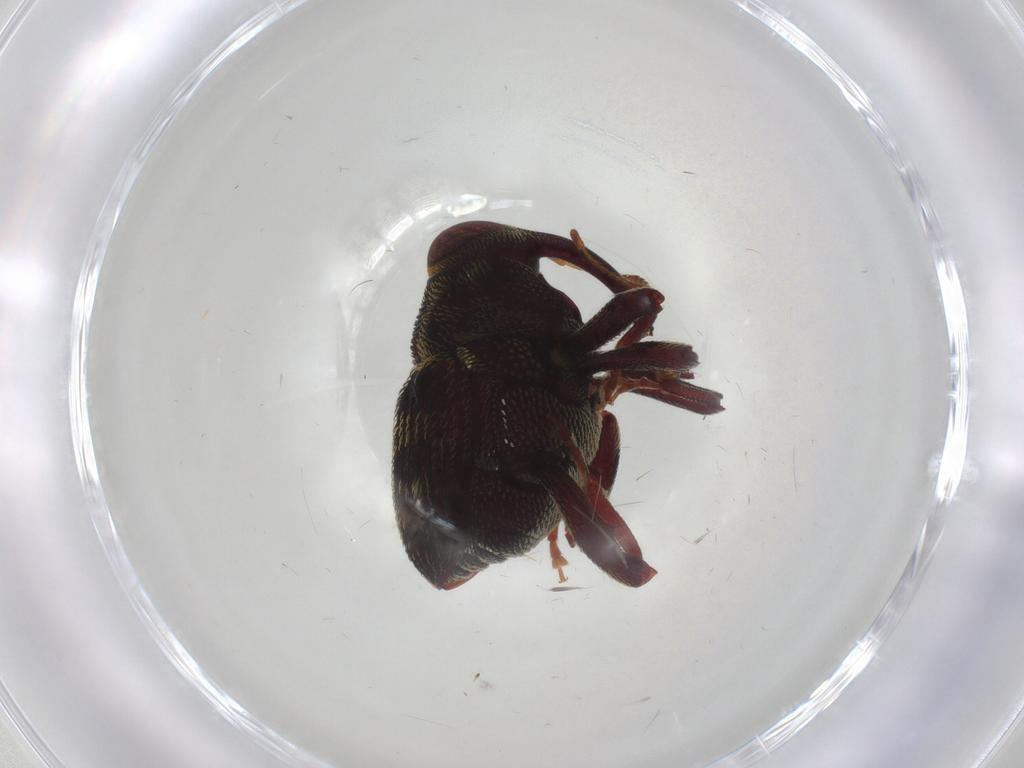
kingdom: Animalia
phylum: Arthropoda
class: Insecta
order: Coleoptera
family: Curculionidae
